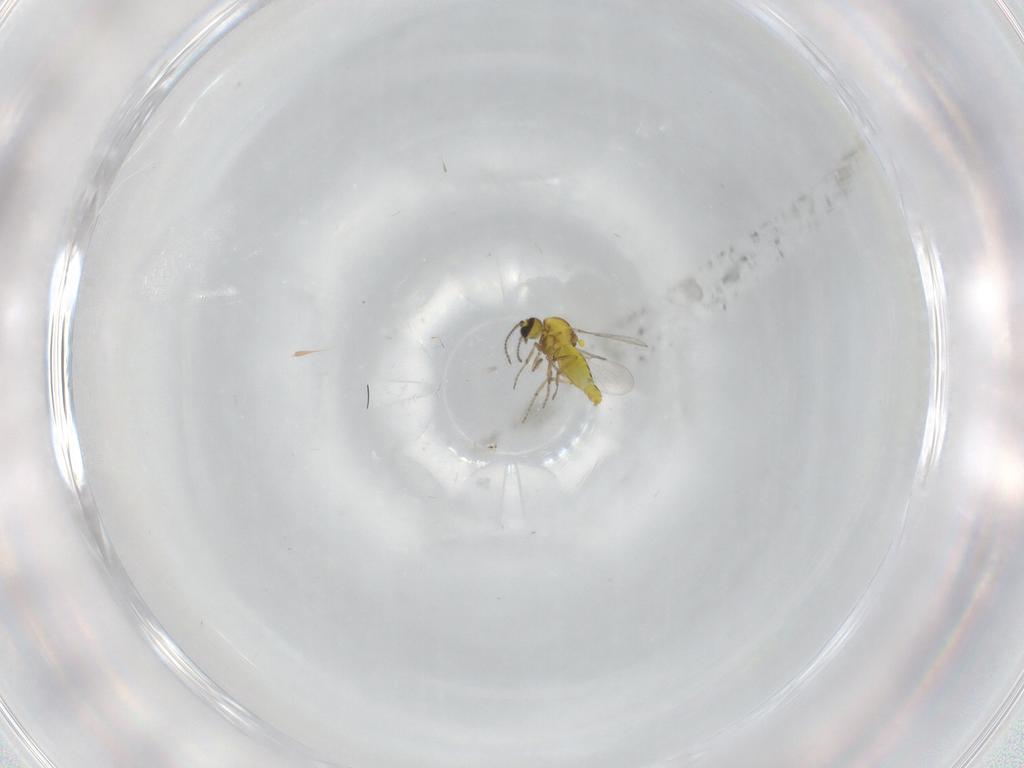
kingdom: Animalia
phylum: Arthropoda
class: Insecta
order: Diptera
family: Ceratopogonidae
